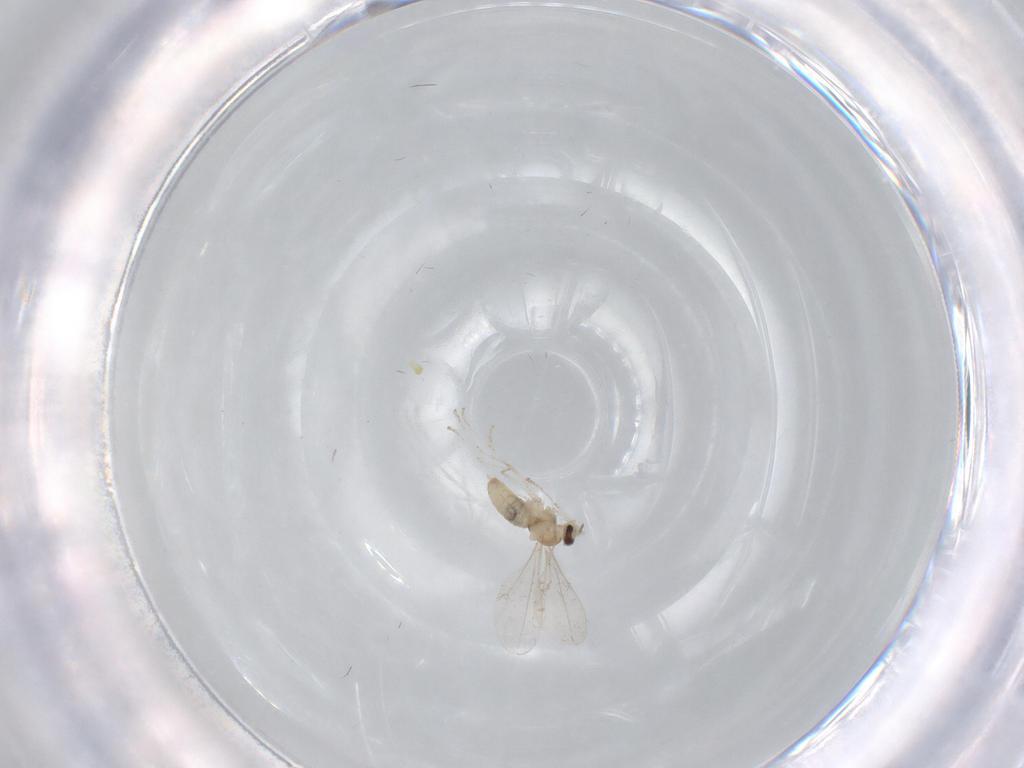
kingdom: Animalia
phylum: Arthropoda
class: Insecta
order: Diptera
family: Cecidomyiidae
